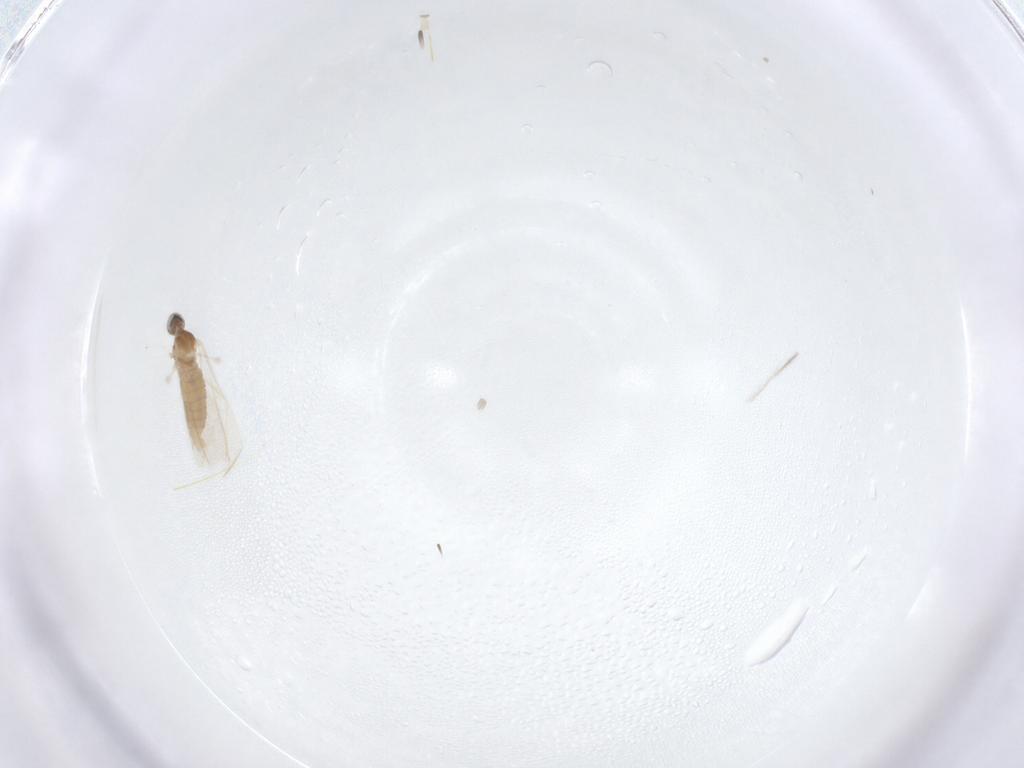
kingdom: Animalia
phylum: Arthropoda
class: Insecta
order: Diptera
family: Ceratopogonidae
